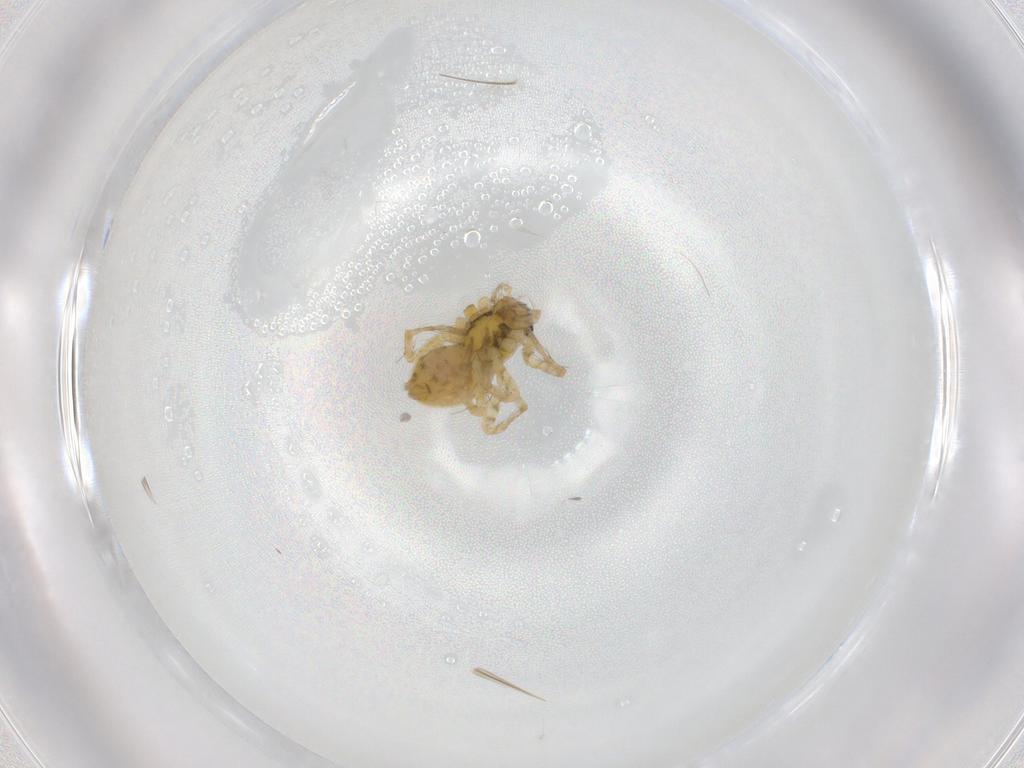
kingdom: Animalia
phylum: Arthropoda
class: Arachnida
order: Araneae
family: Anyphaenidae
